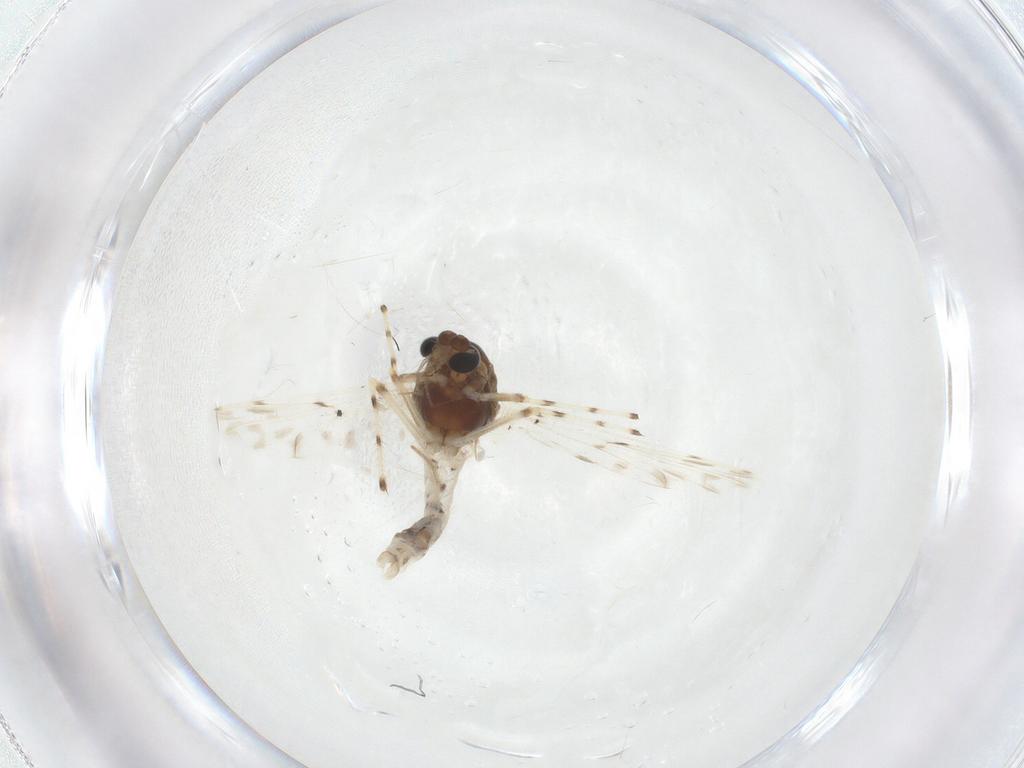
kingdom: Animalia
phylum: Arthropoda
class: Insecta
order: Diptera
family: Chironomidae
